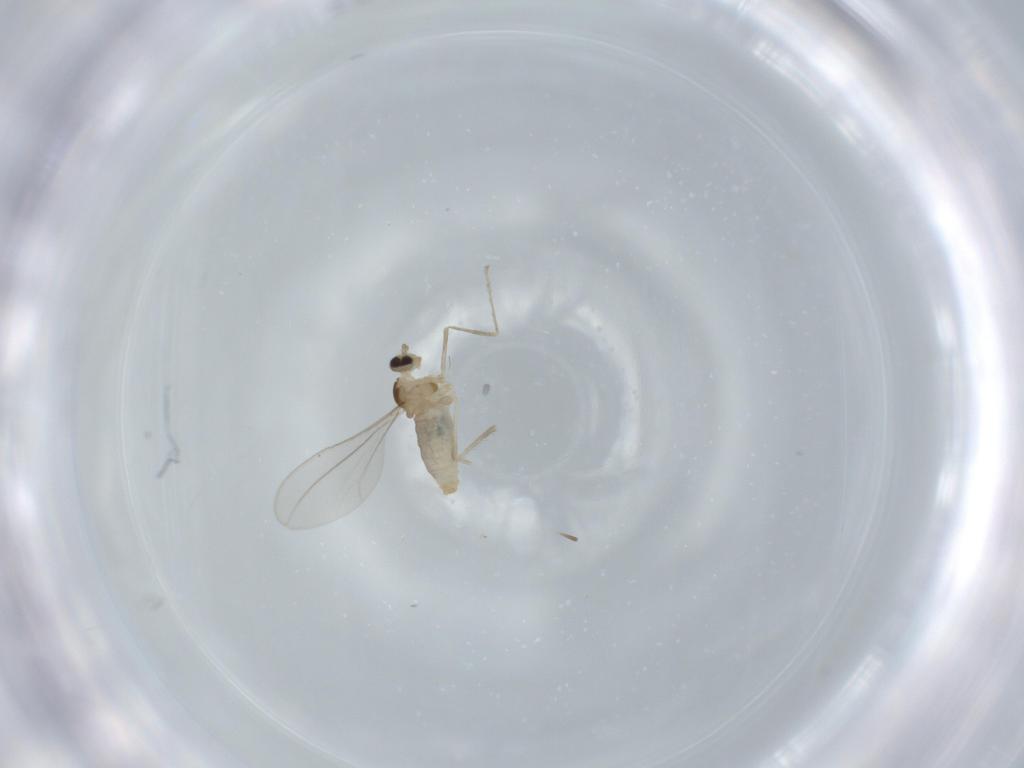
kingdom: Animalia
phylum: Arthropoda
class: Insecta
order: Diptera
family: Cecidomyiidae
